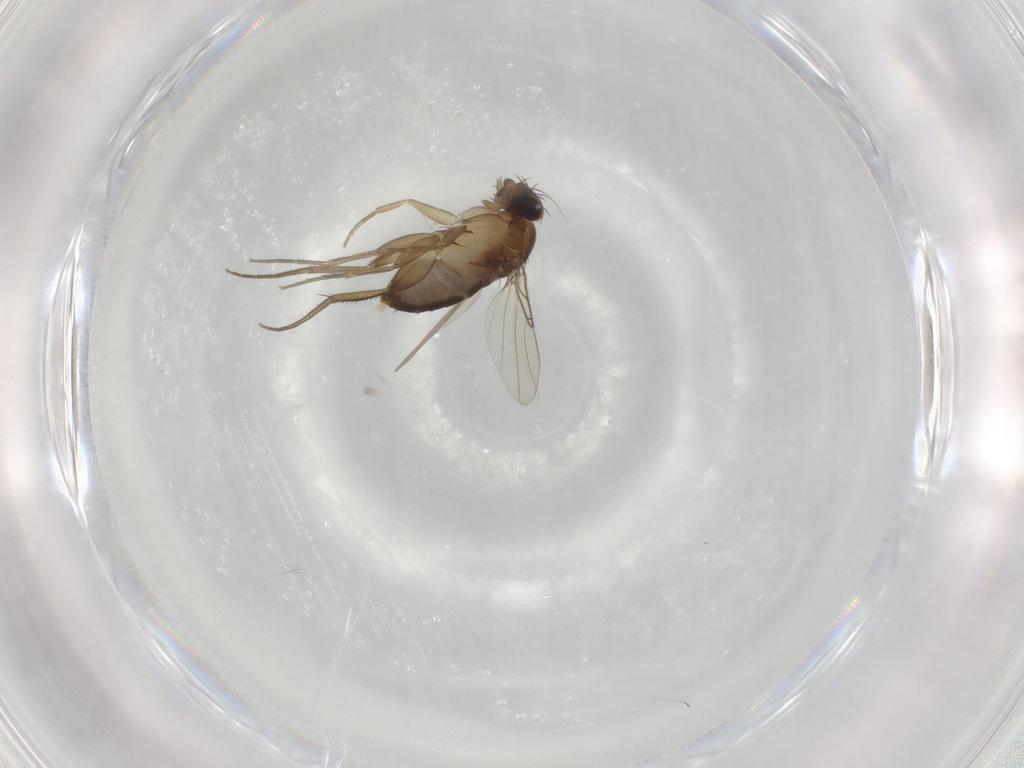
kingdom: Animalia
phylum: Arthropoda
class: Insecta
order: Diptera
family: Phoridae
